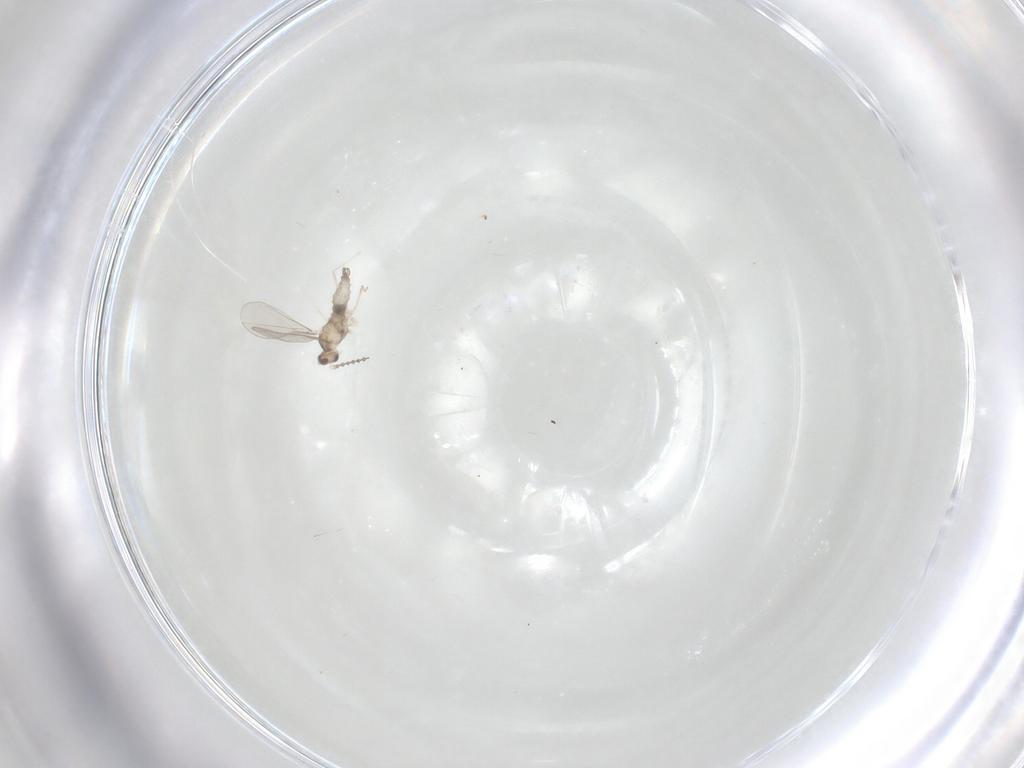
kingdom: Animalia
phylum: Arthropoda
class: Insecta
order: Diptera
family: Cecidomyiidae
